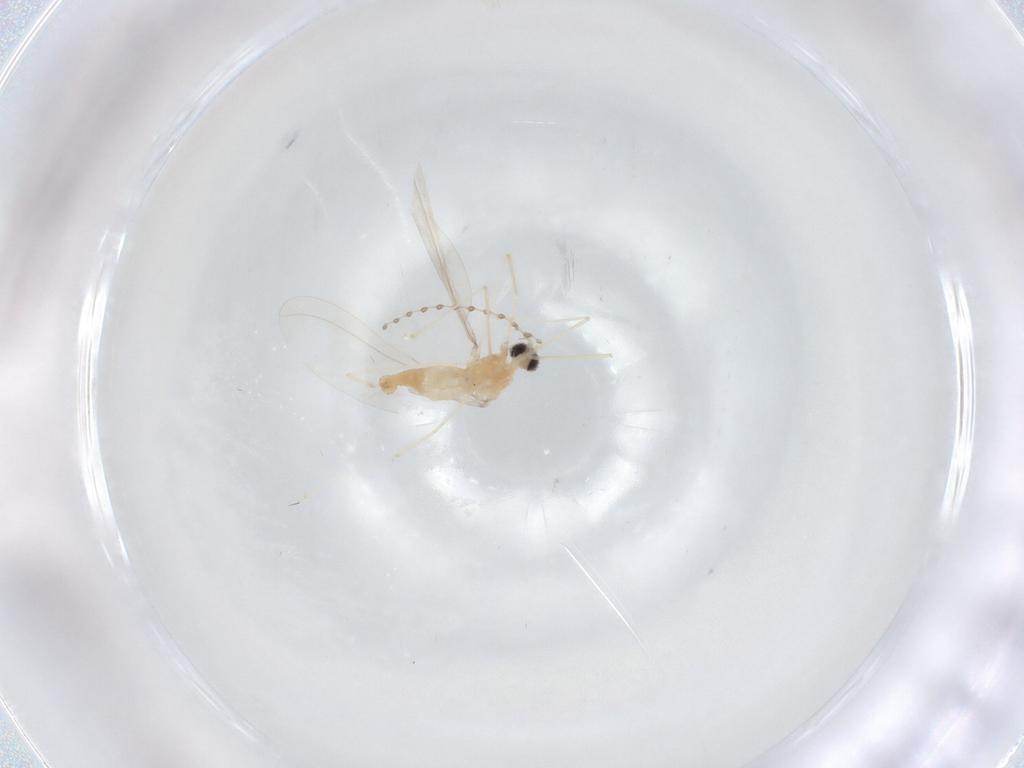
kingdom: Animalia
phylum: Arthropoda
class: Insecta
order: Diptera
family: Cecidomyiidae
